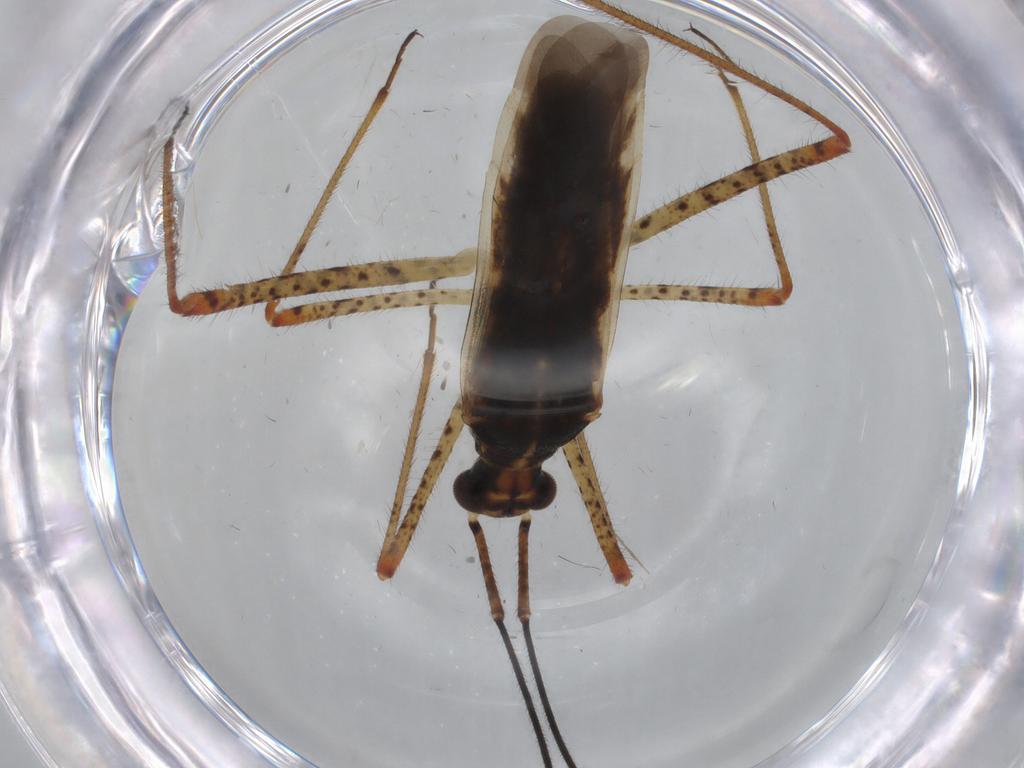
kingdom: Animalia
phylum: Arthropoda
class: Insecta
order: Hemiptera
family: Miridae
